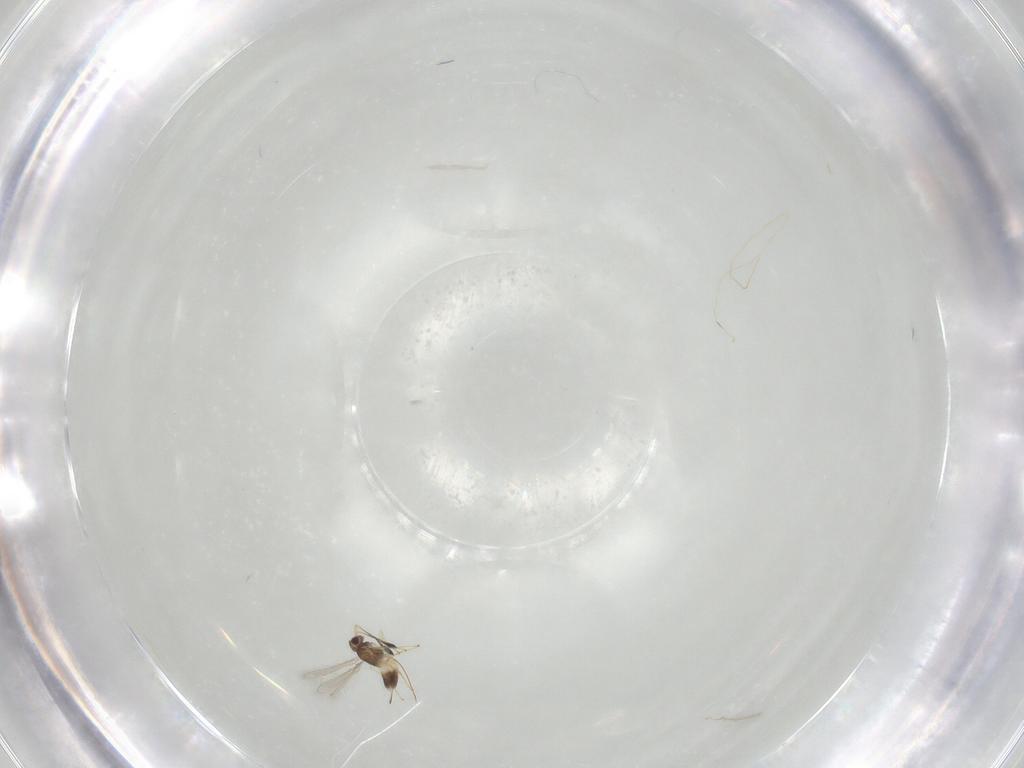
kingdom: Animalia
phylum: Arthropoda
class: Insecta
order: Hymenoptera
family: Mymaridae
